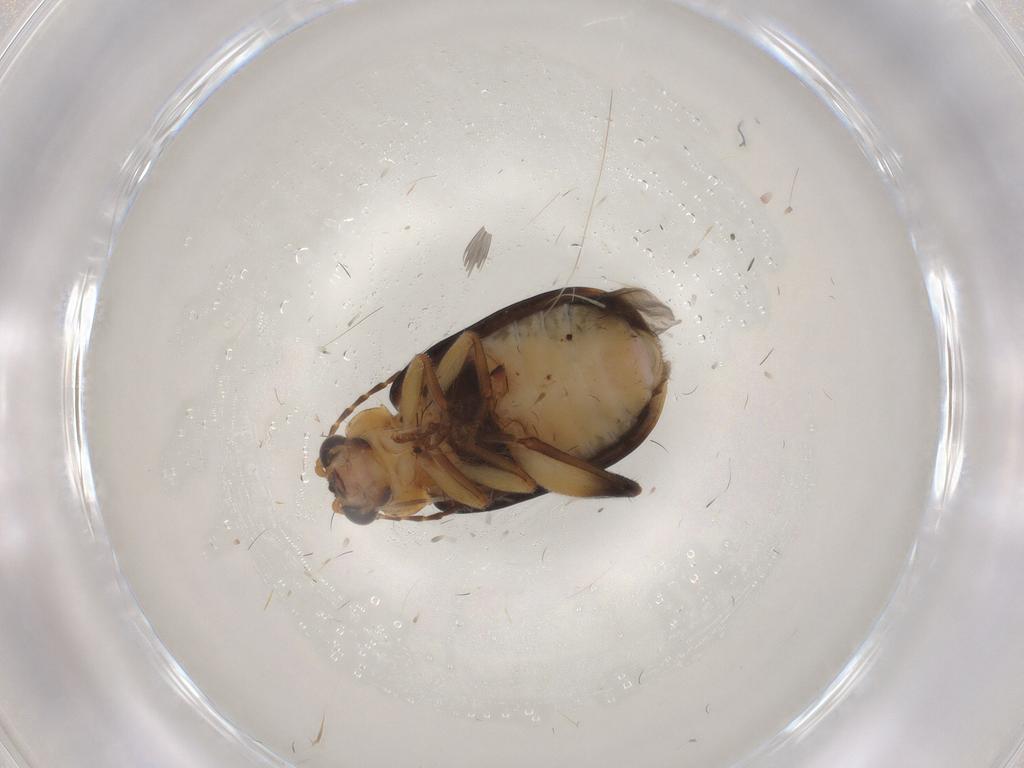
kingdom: Animalia
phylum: Arthropoda
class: Insecta
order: Coleoptera
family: Chrysomelidae
